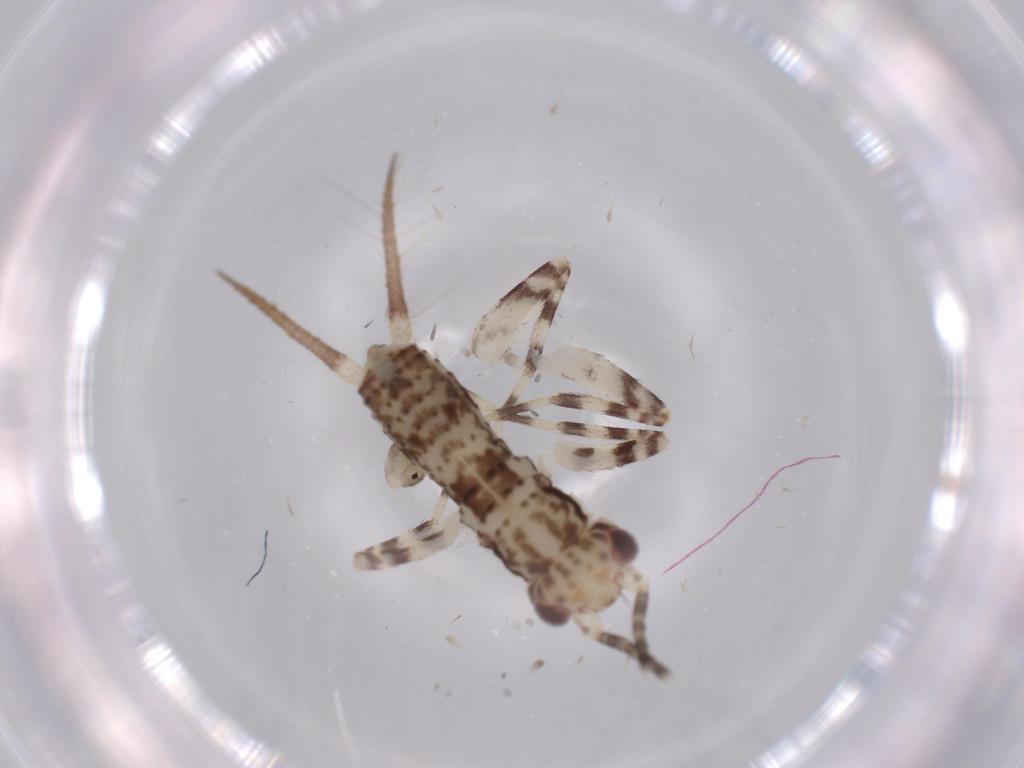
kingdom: Animalia
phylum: Arthropoda
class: Insecta
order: Orthoptera
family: Gryllidae
